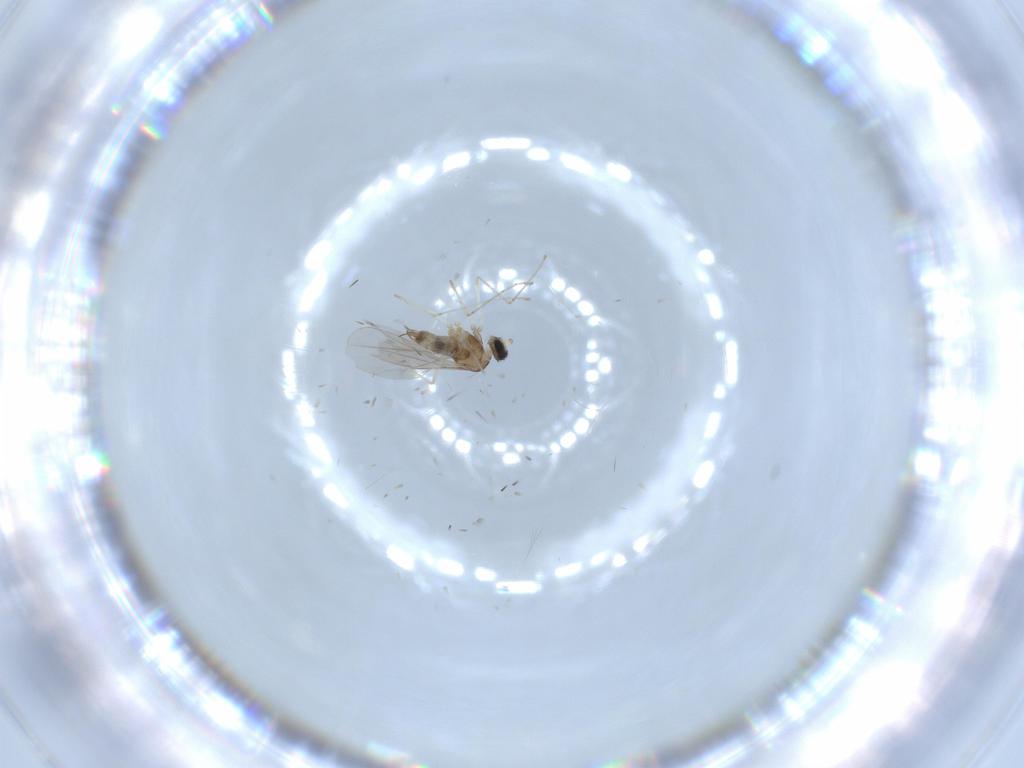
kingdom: Animalia
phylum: Arthropoda
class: Insecta
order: Diptera
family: Cecidomyiidae
